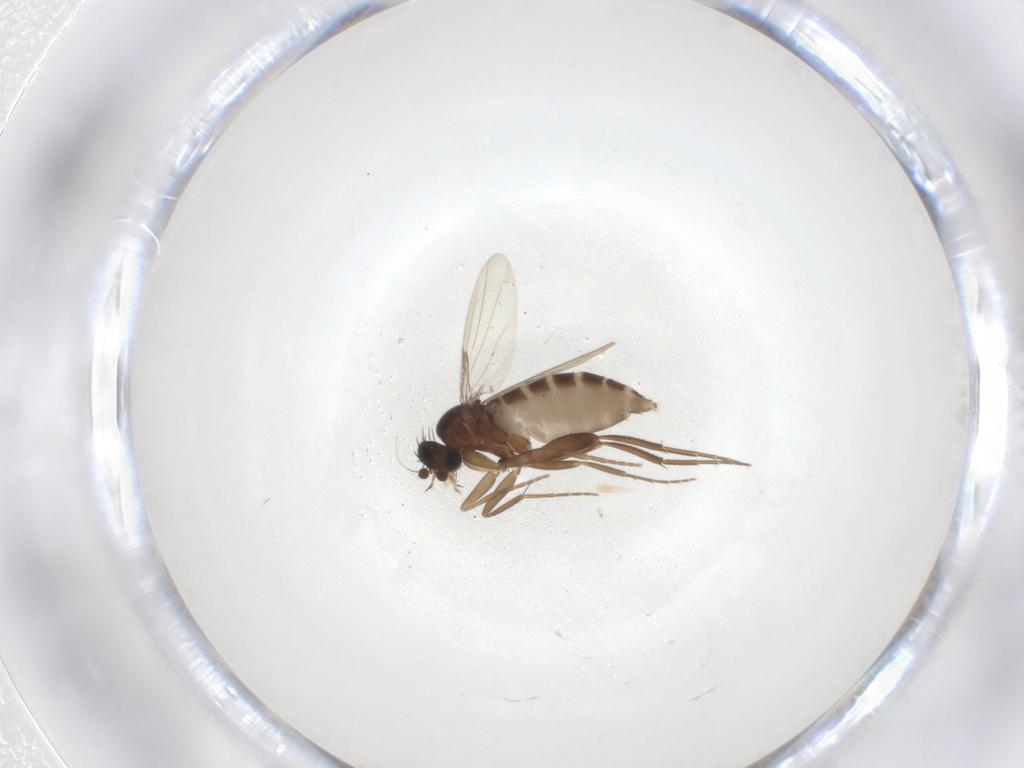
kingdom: Animalia
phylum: Arthropoda
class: Insecta
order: Diptera
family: Phoridae
